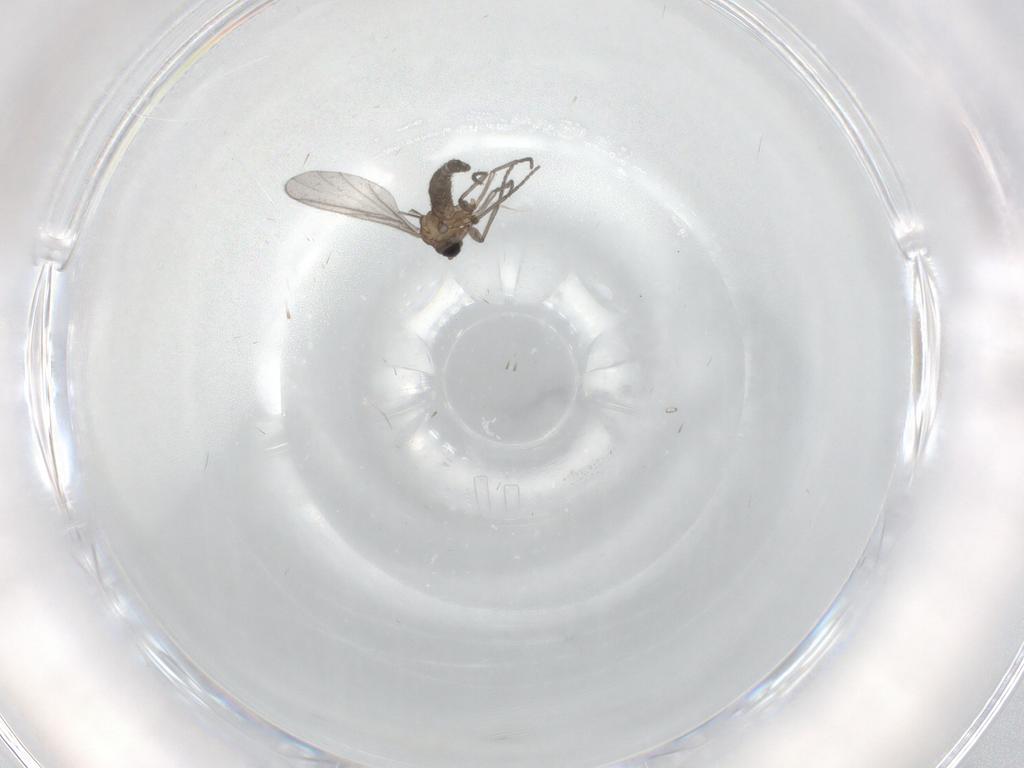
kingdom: Animalia
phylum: Arthropoda
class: Insecta
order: Diptera
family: Sciaridae
